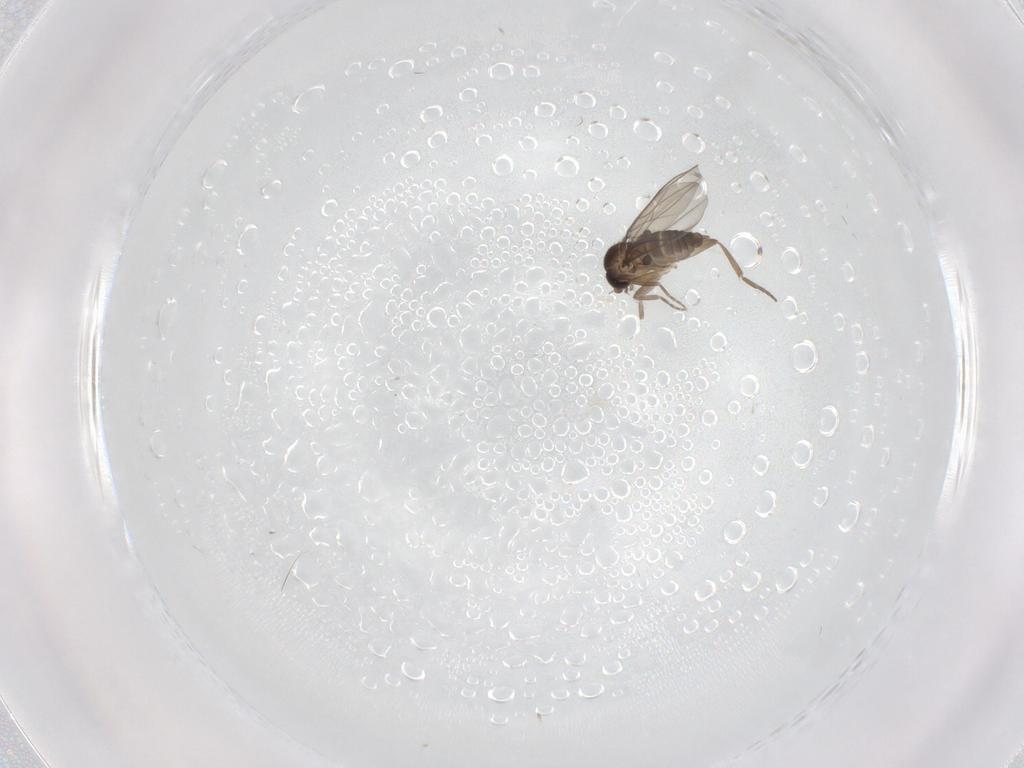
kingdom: Animalia
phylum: Arthropoda
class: Insecta
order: Diptera
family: Phoridae
